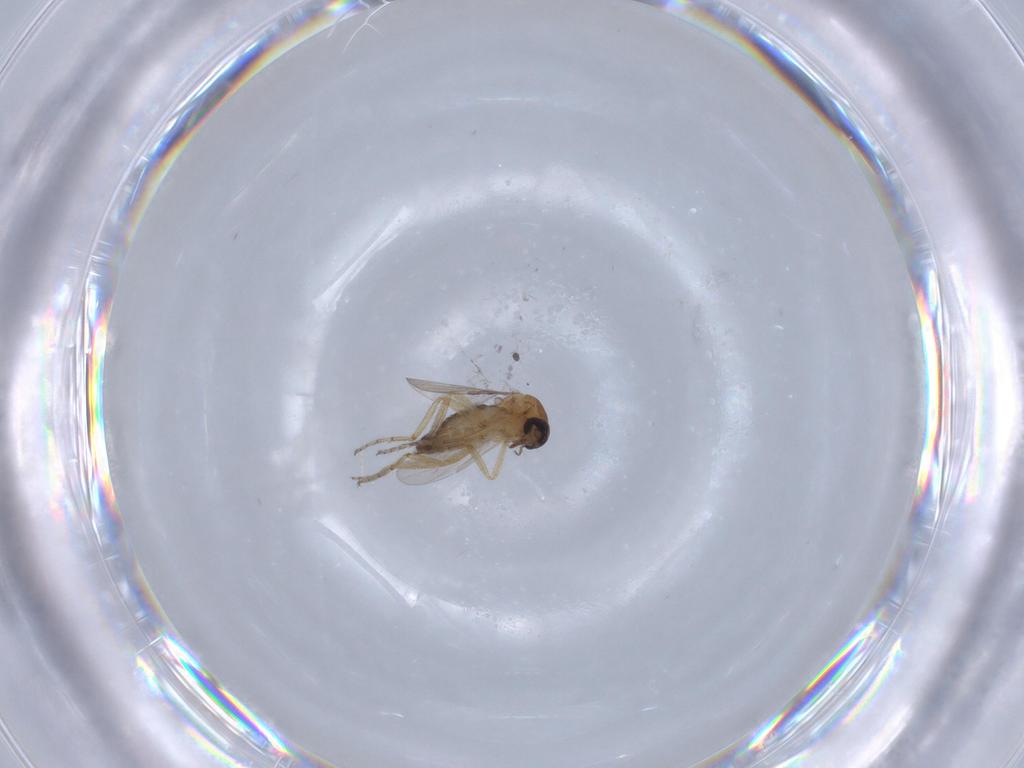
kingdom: Animalia
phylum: Arthropoda
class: Insecta
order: Diptera
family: Ceratopogonidae
